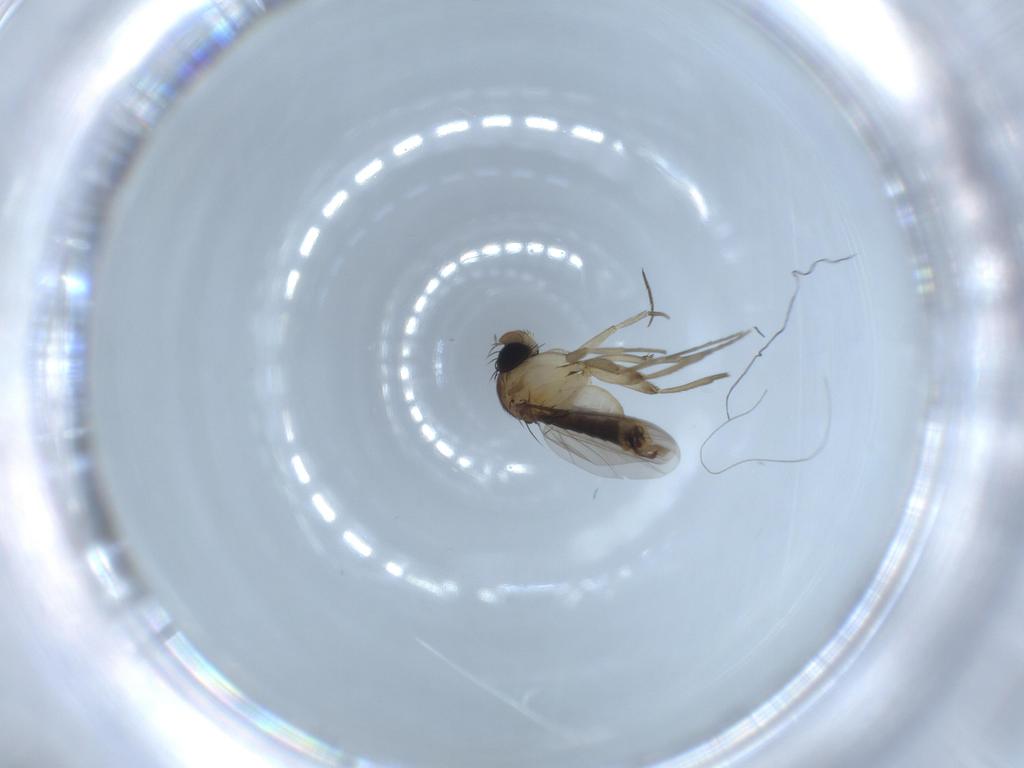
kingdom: Animalia
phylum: Arthropoda
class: Insecta
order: Diptera
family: Phoridae
